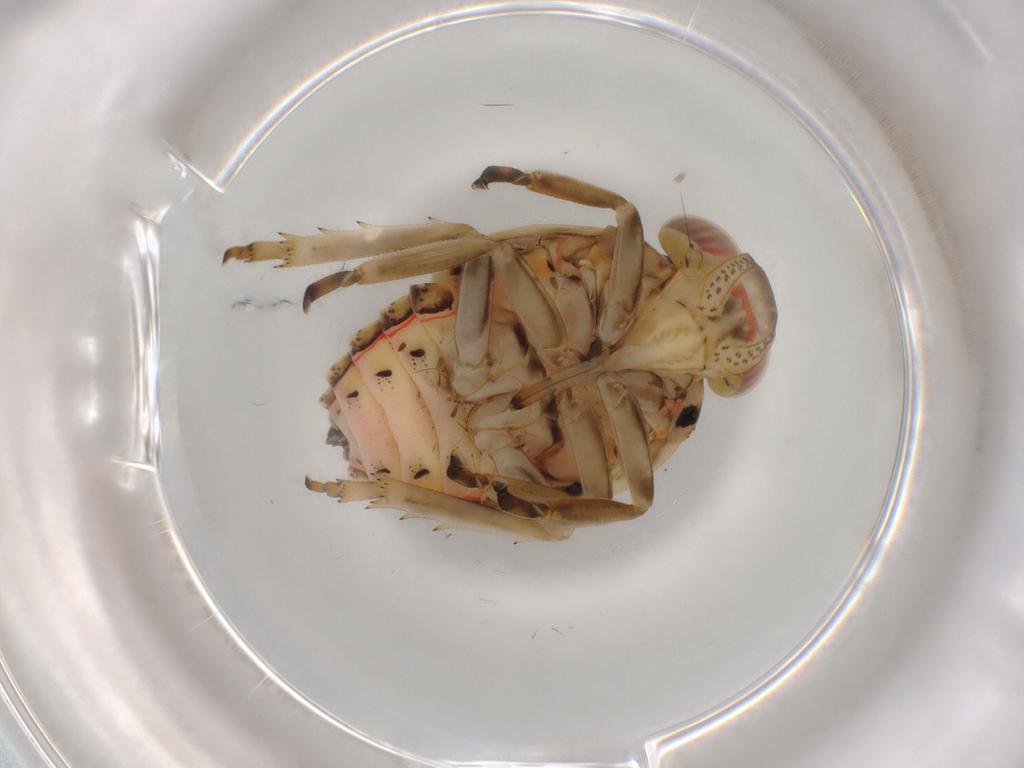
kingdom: Animalia
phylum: Arthropoda
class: Insecta
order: Hemiptera
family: Issidae
